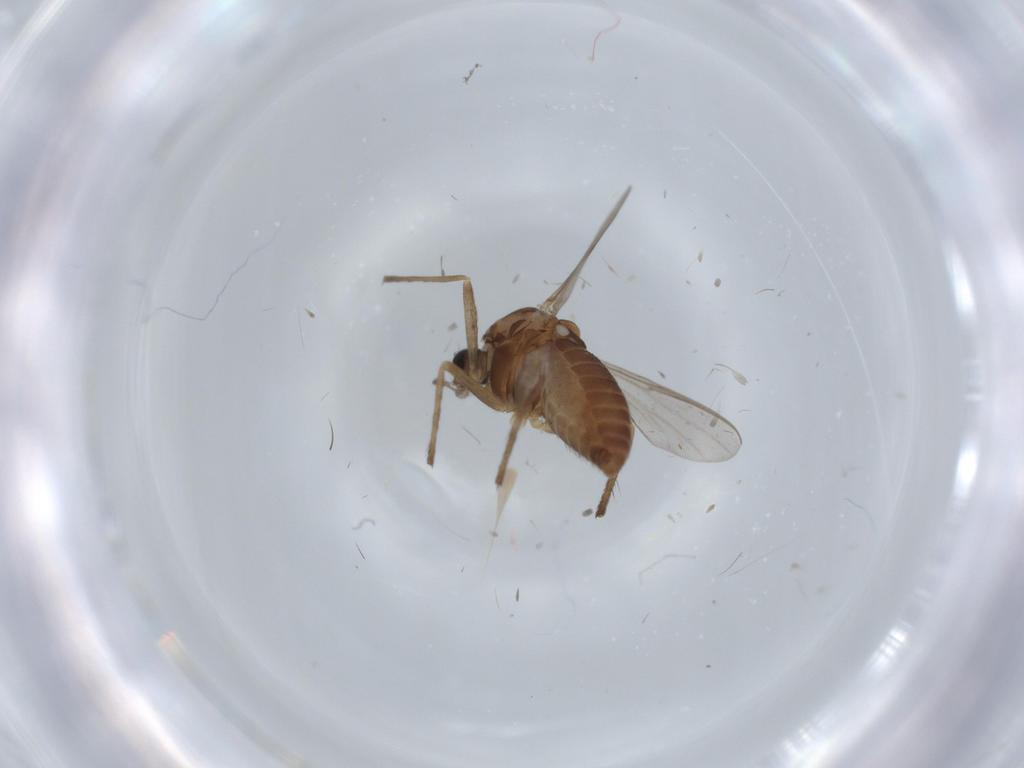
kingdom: Animalia
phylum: Arthropoda
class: Insecta
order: Diptera
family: Chironomidae
